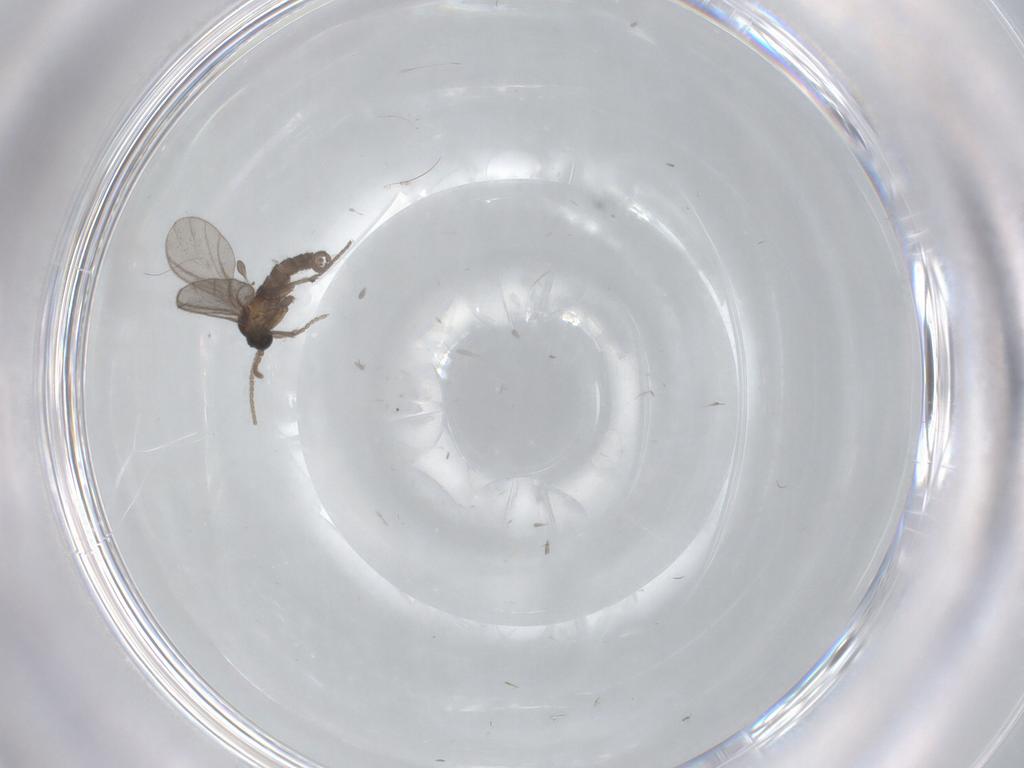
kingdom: Animalia
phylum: Arthropoda
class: Insecta
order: Diptera
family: Sciaridae
